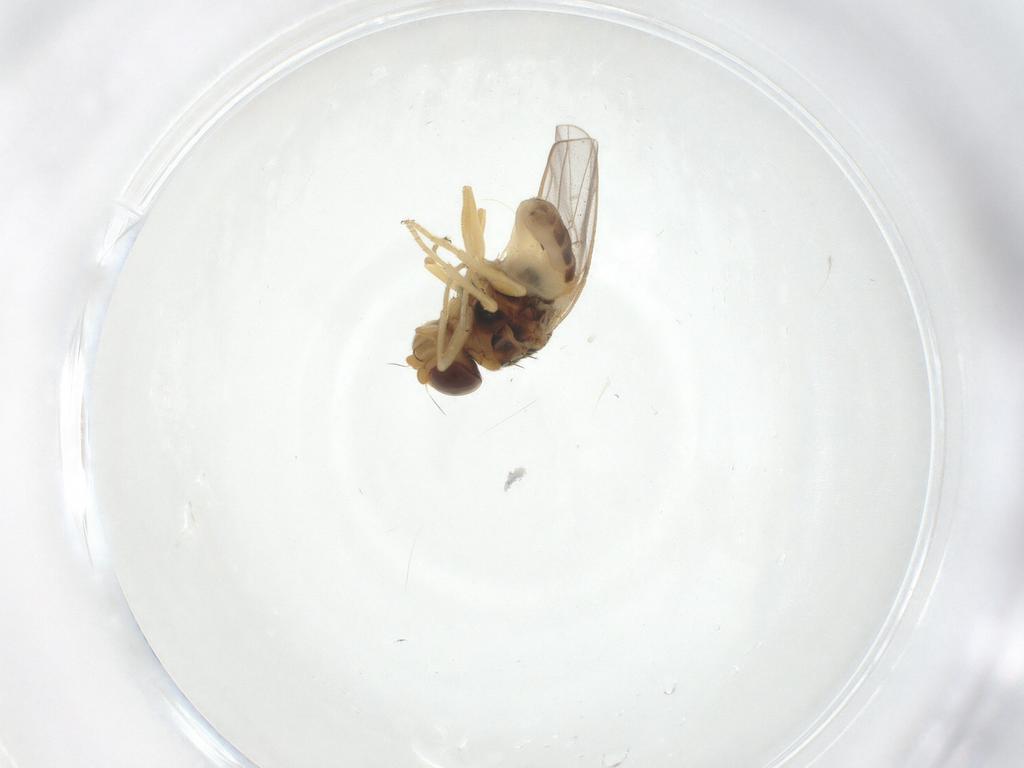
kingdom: Animalia
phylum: Arthropoda
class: Insecta
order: Diptera
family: Chloropidae
